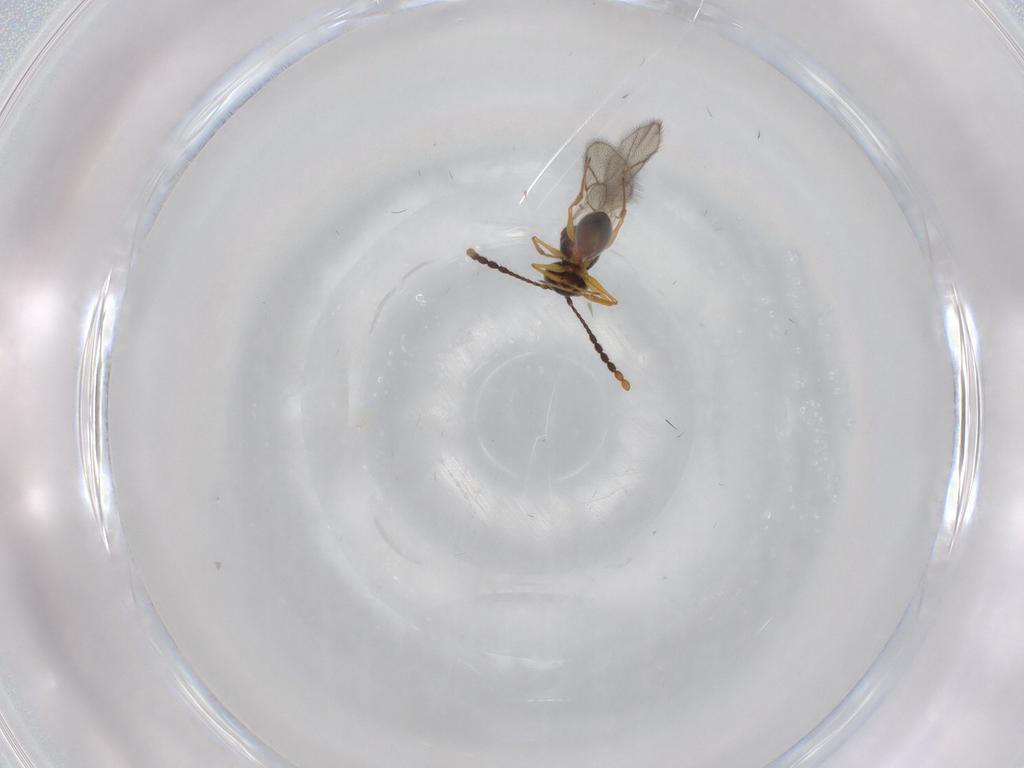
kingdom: Animalia
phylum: Arthropoda
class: Insecta
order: Hymenoptera
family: Figitidae
